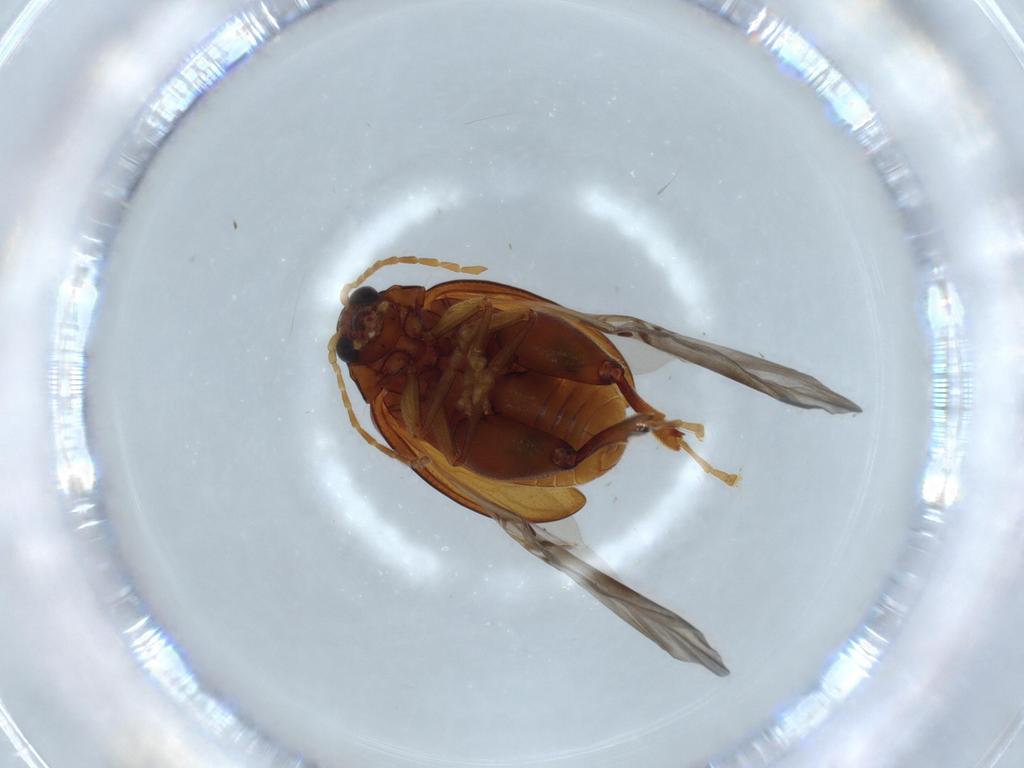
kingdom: Animalia
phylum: Arthropoda
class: Insecta
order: Coleoptera
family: Chrysomelidae
